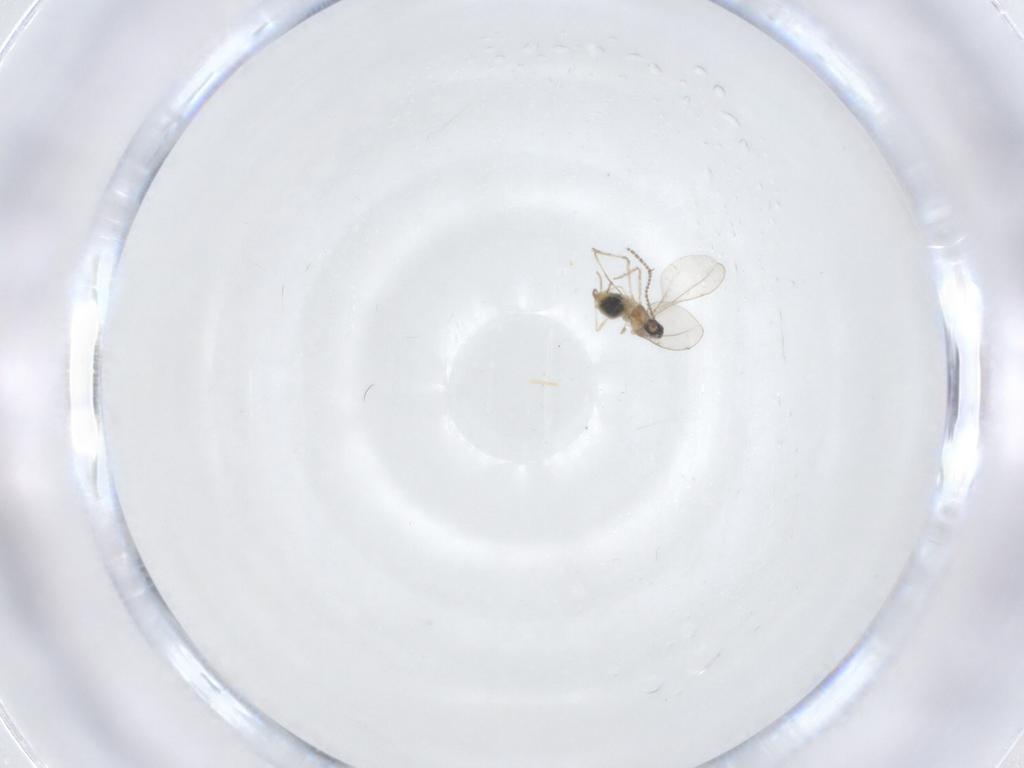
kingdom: Animalia
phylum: Arthropoda
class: Insecta
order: Diptera
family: Cecidomyiidae
